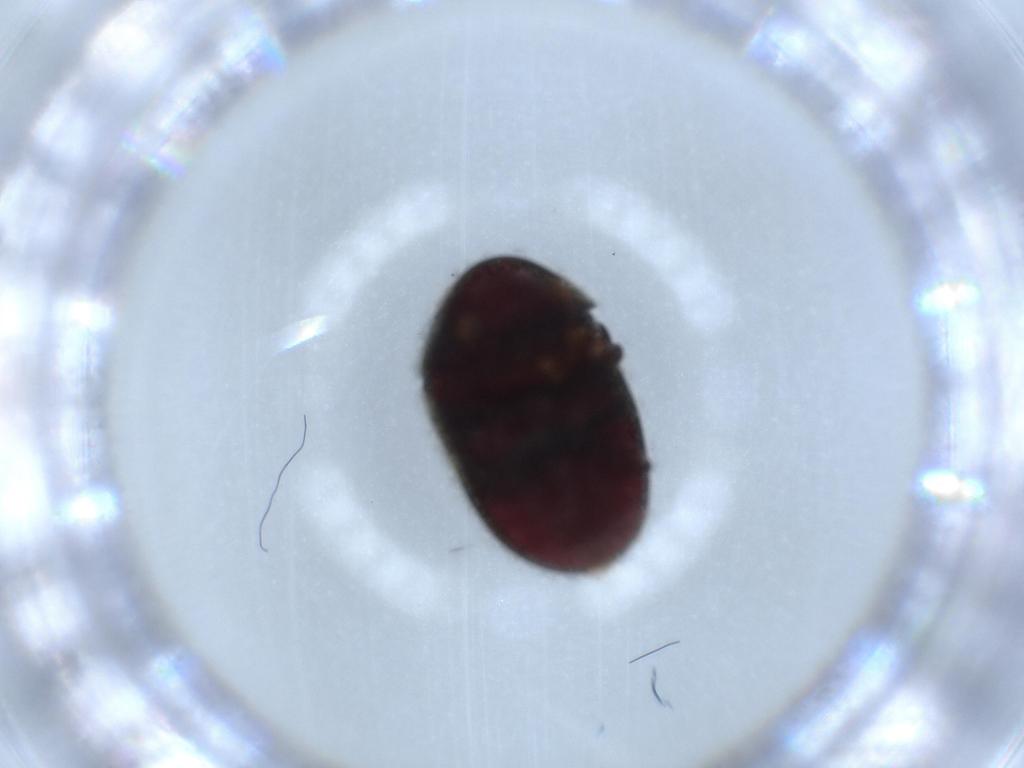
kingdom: Animalia
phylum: Arthropoda
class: Insecta
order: Coleoptera
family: Ptinidae
